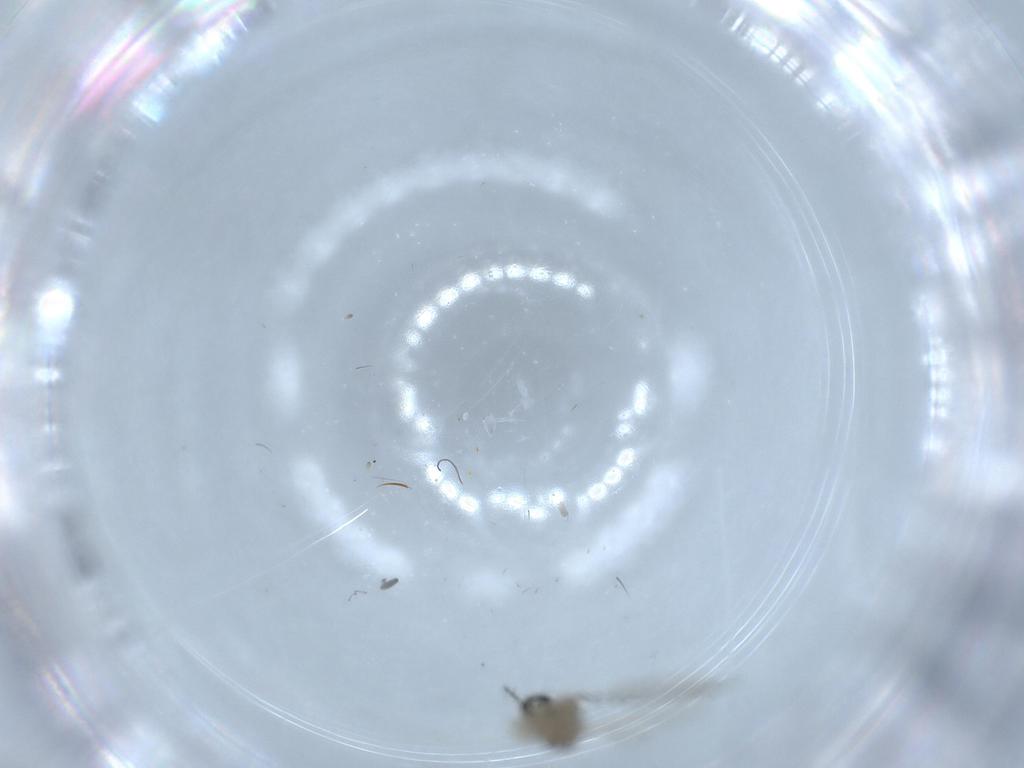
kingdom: Animalia
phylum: Arthropoda
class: Insecta
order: Diptera
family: Cecidomyiidae
